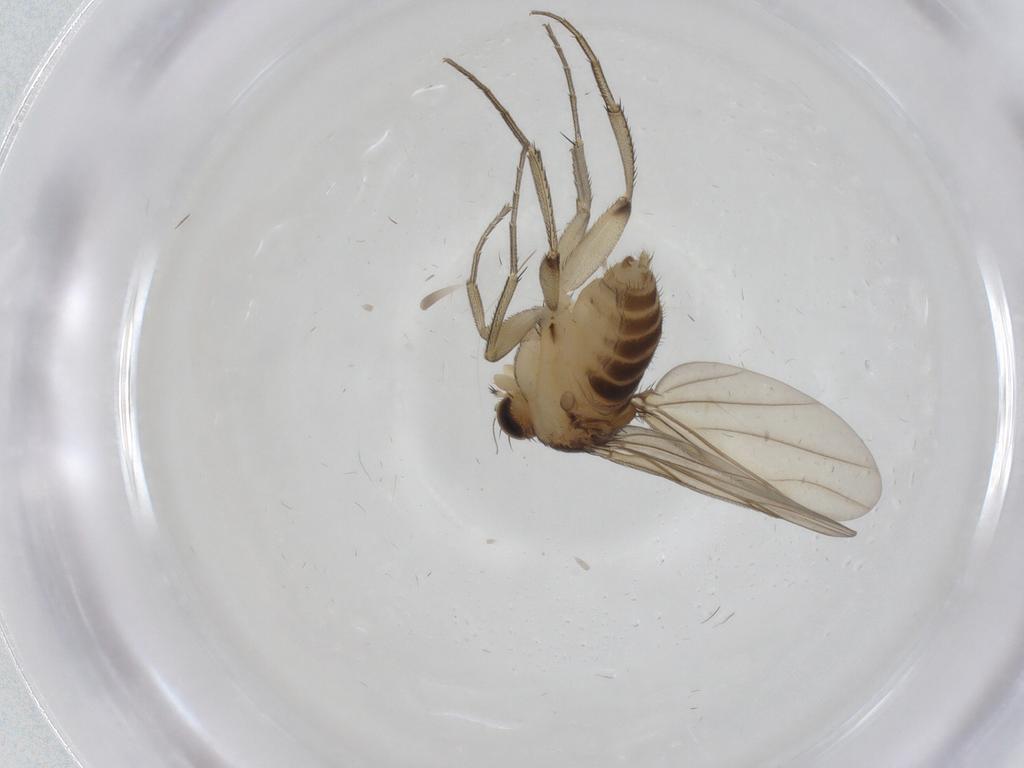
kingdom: Animalia
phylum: Arthropoda
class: Insecta
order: Diptera
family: Phoridae
